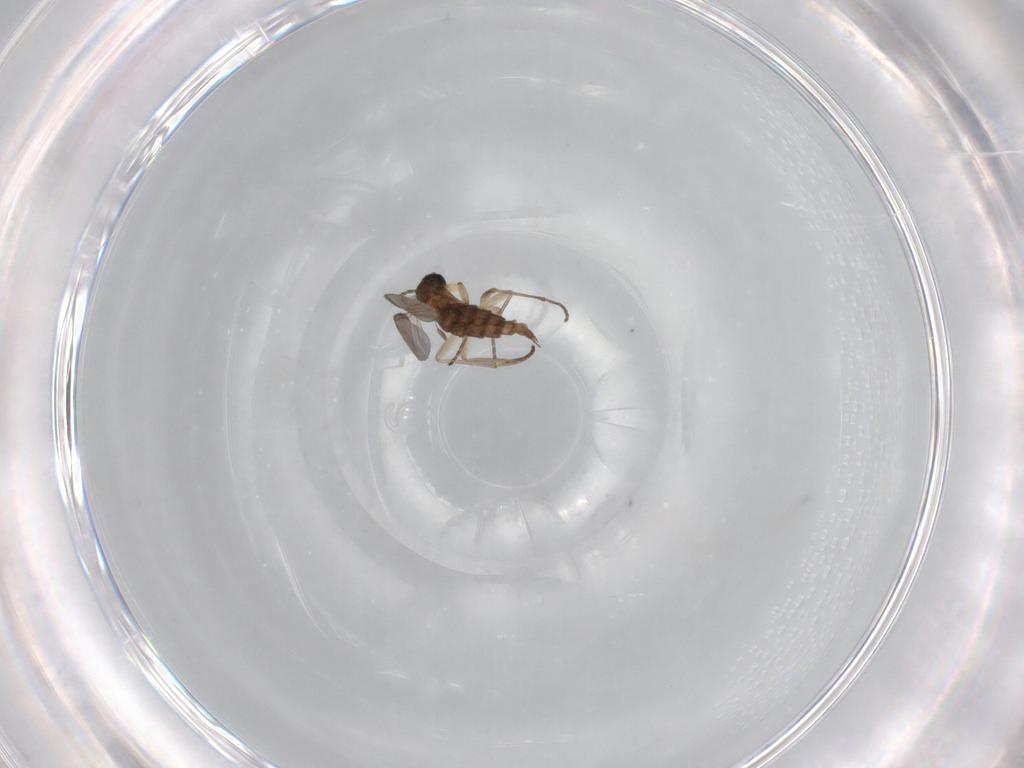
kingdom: Animalia
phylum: Arthropoda
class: Insecta
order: Diptera
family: Sciaridae
